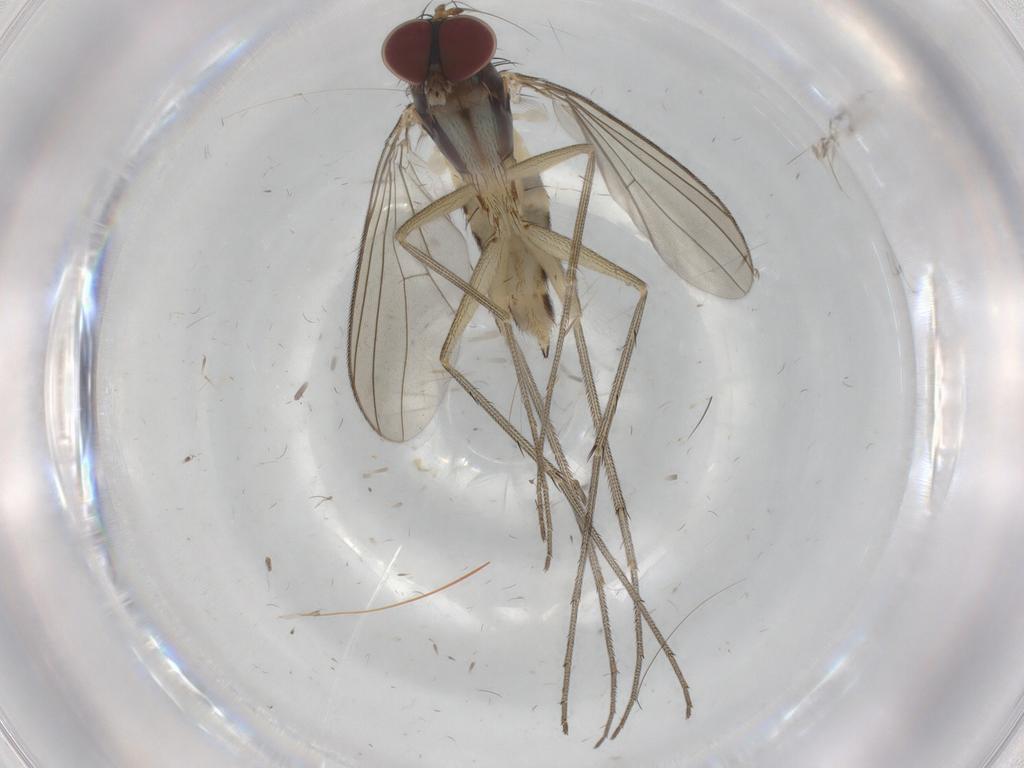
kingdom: Animalia
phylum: Arthropoda
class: Insecta
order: Diptera
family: Dolichopodidae
